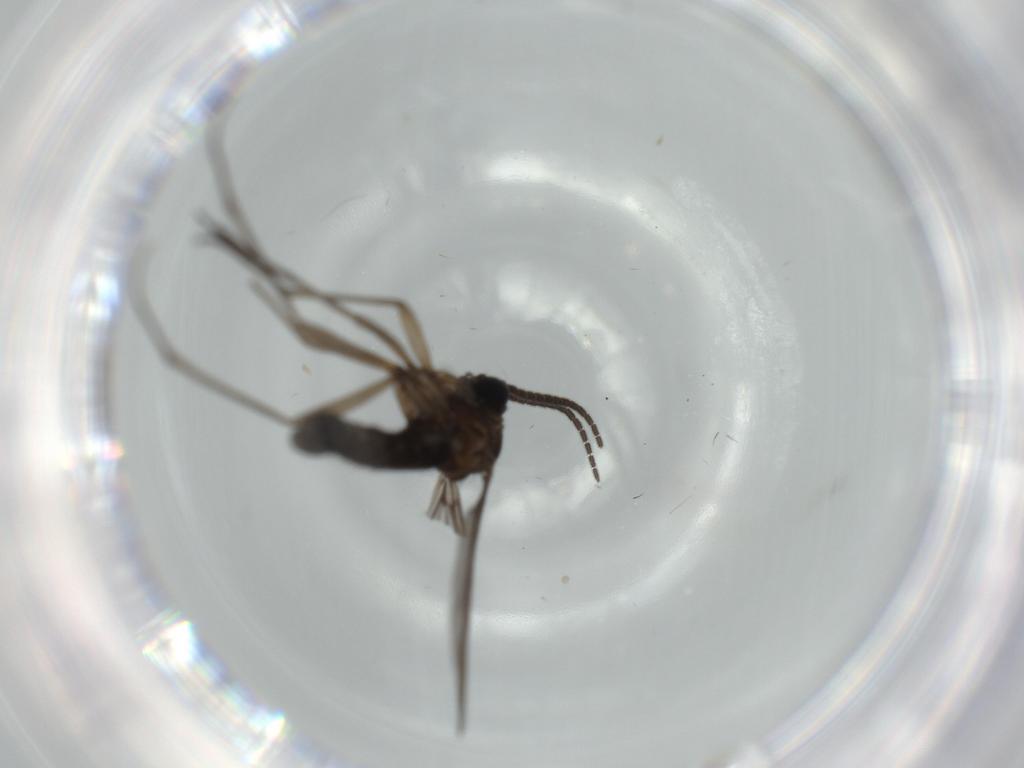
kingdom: Animalia
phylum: Arthropoda
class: Insecta
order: Diptera
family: Sciaridae
